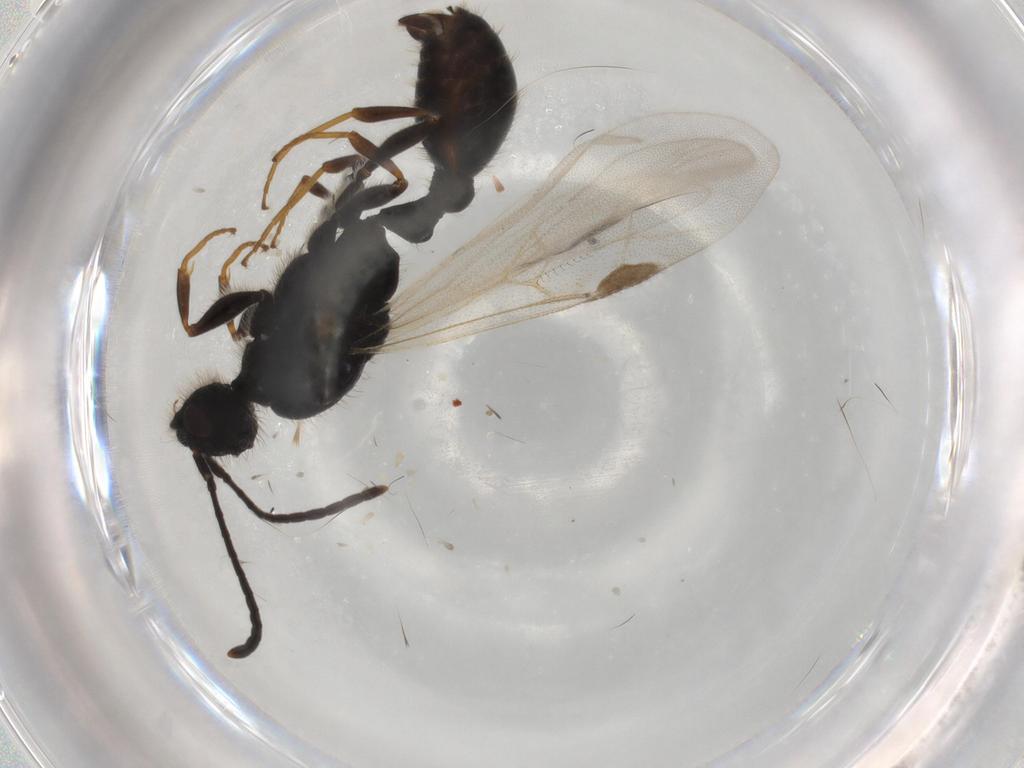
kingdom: Animalia
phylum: Arthropoda
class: Insecta
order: Hymenoptera
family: Formicidae
